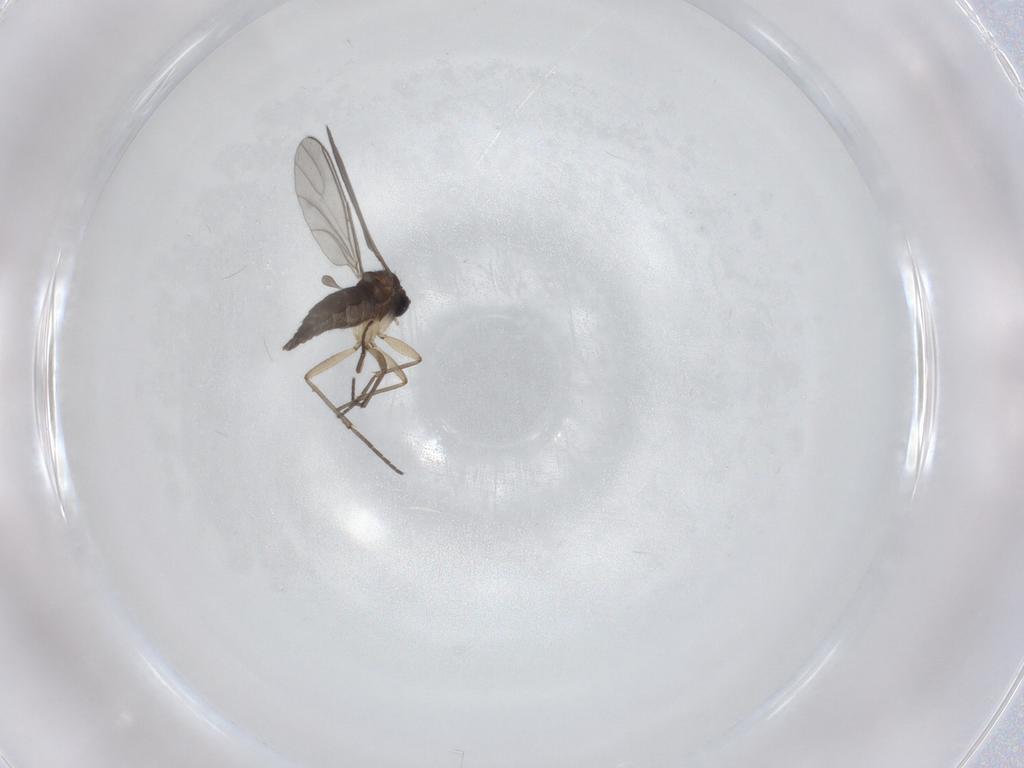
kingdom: Animalia
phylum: Arthropoda
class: Insecta
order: Diptera
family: Sciaridae
